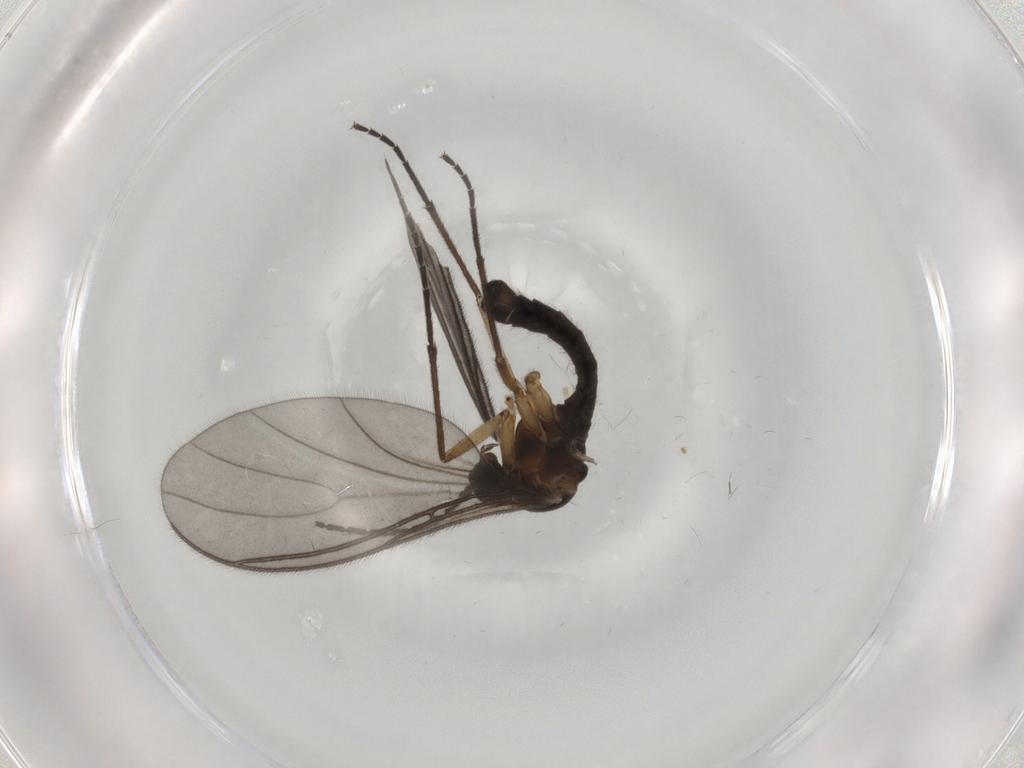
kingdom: Animalia
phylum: Arthropoda
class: Insecta
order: Diptera
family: Sciaridae
